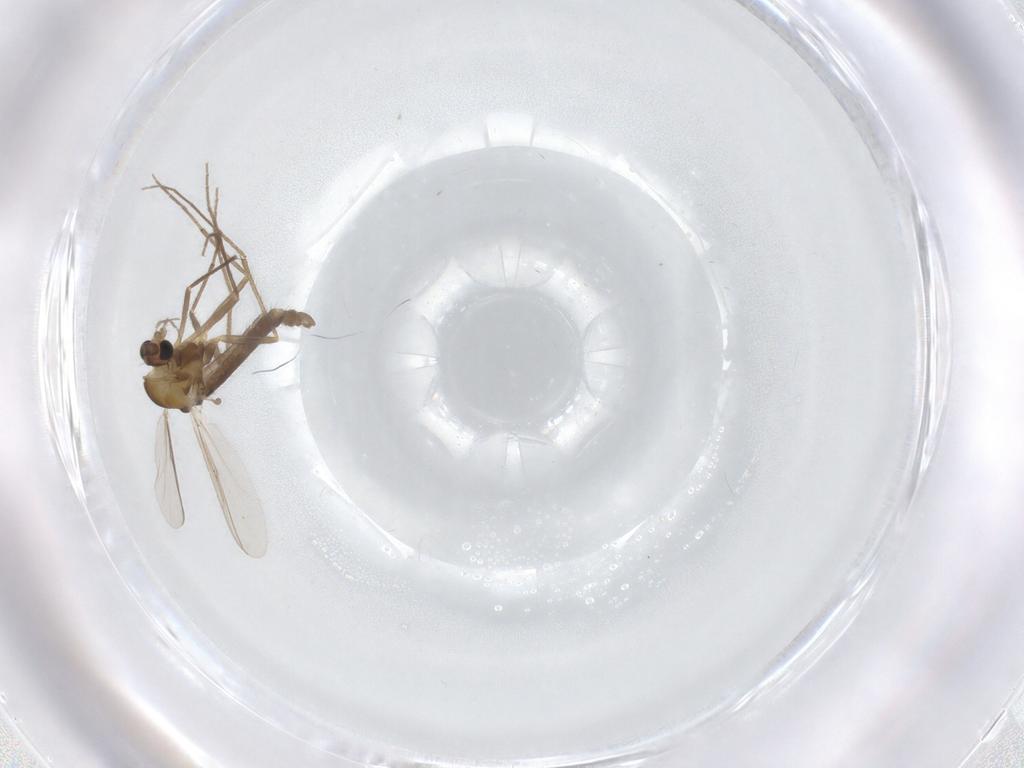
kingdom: Animalia
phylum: Arthropoda
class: Insecta
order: Diptera
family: Chironomidae
